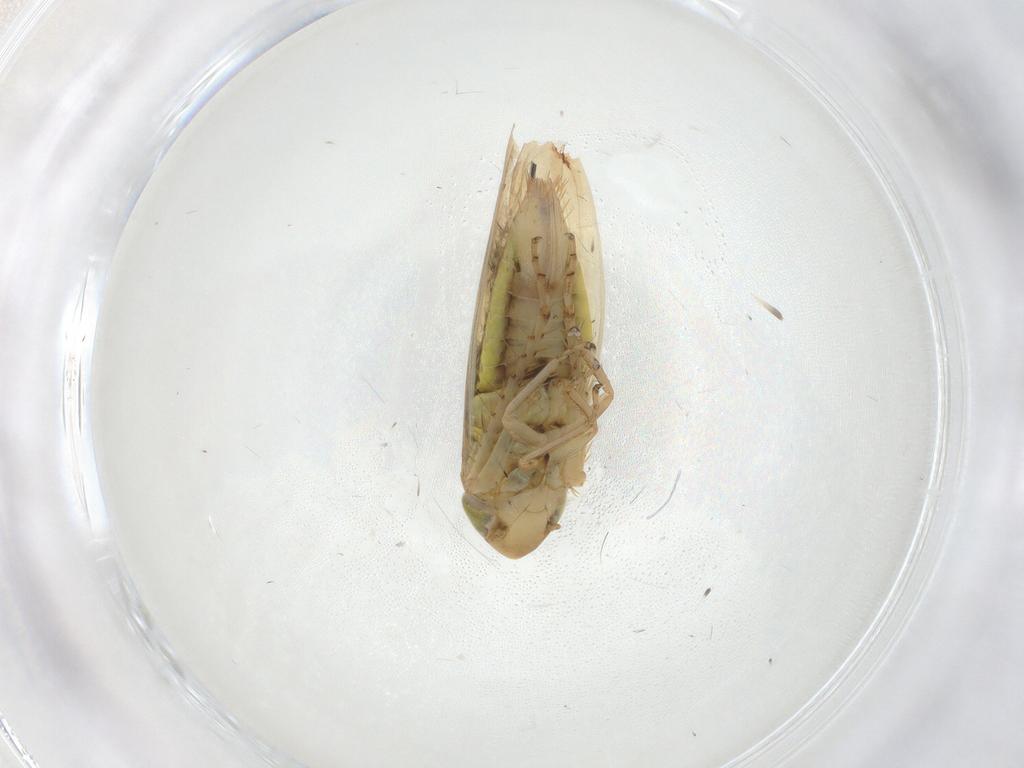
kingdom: Animalia
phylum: Arthropoda
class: Insecta
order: Hemiptera
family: Cicadellidae
